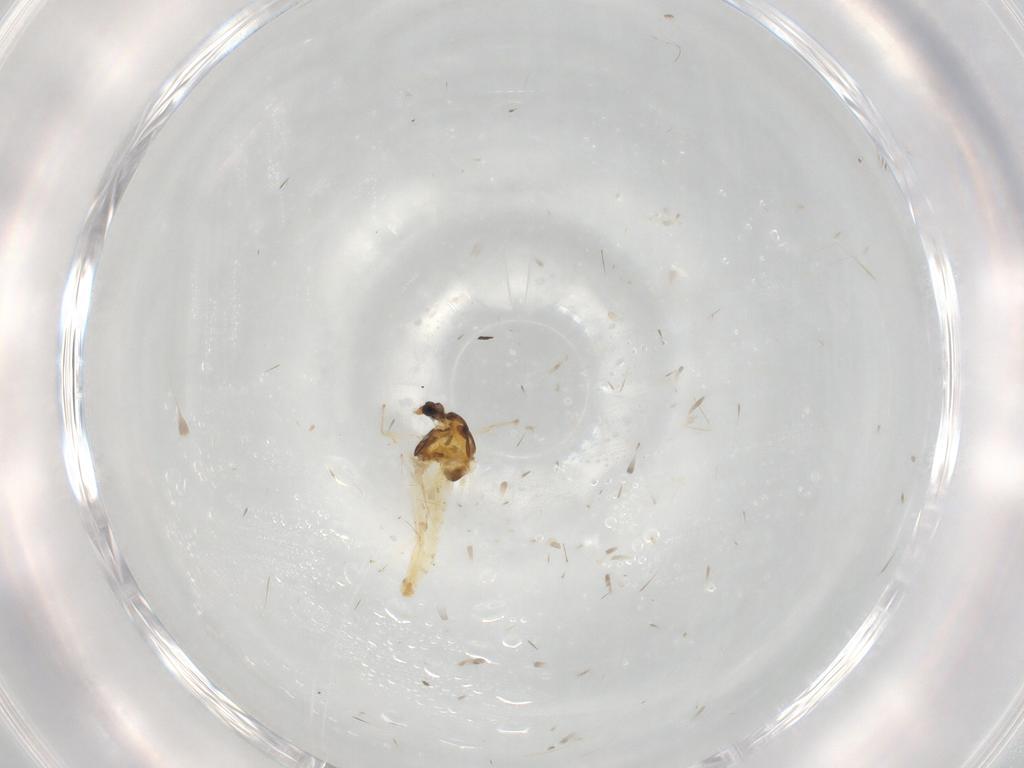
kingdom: Animalia
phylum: Arthropoda
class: Insecta
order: Diptera
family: Chironomidae
